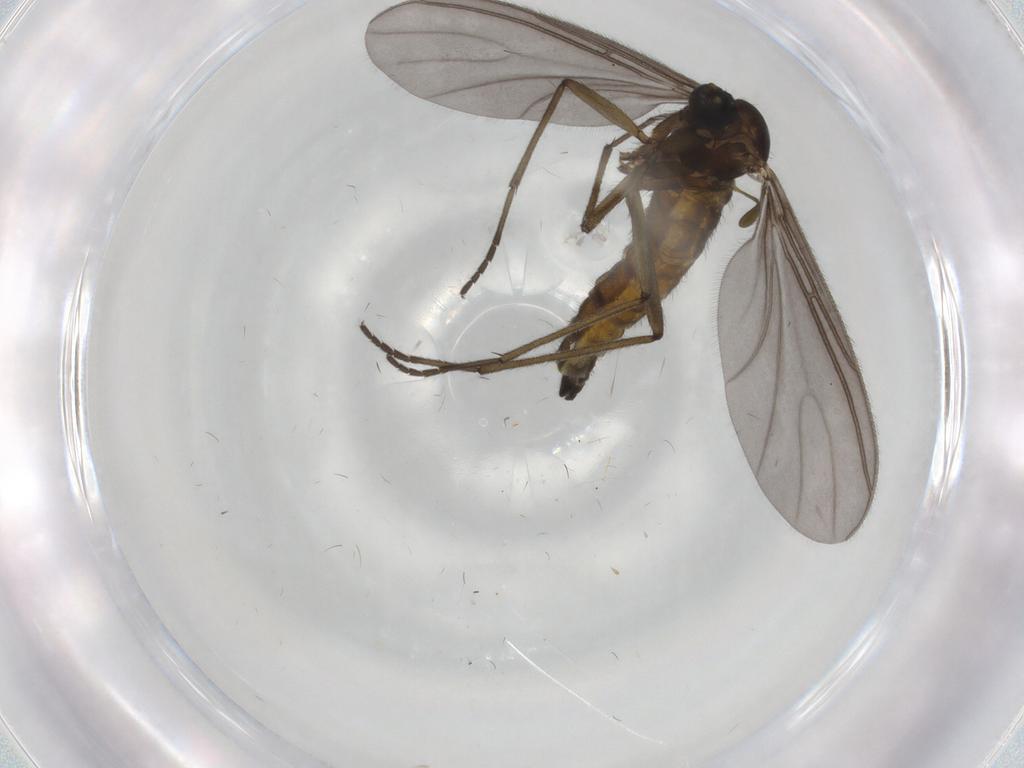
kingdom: Animalia
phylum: Arthropoda
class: Insecta
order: Diptera
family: Sciaridae
